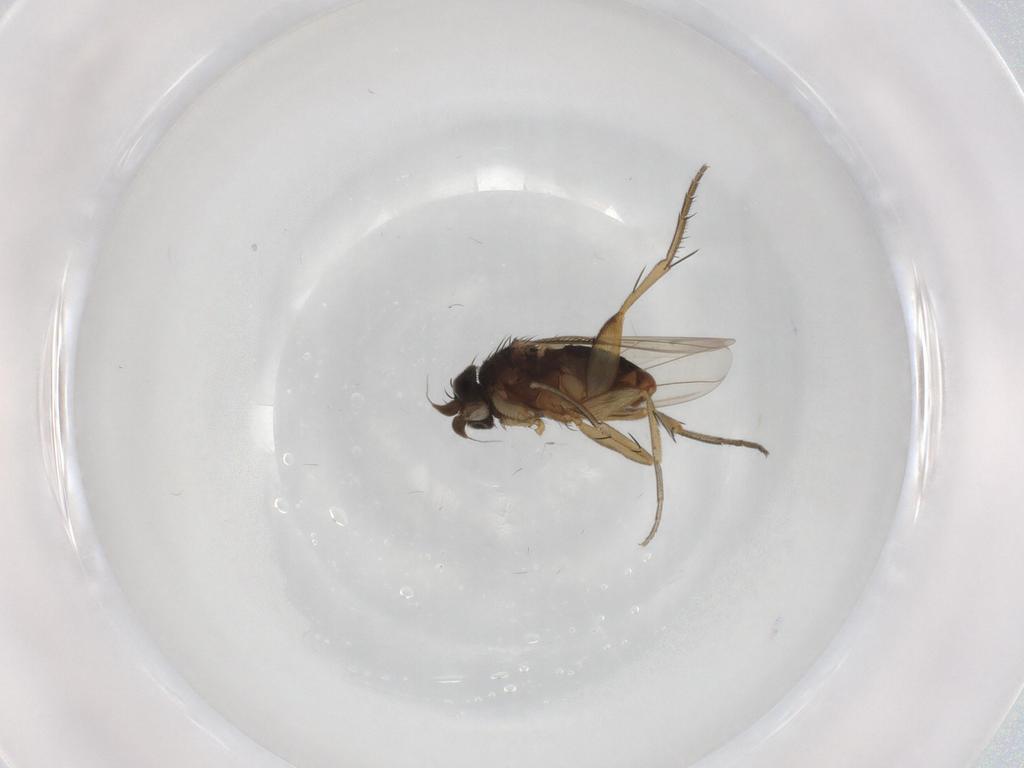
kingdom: Animalia
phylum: Arthropoda
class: Insecta
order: Diptera
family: Phoridae
